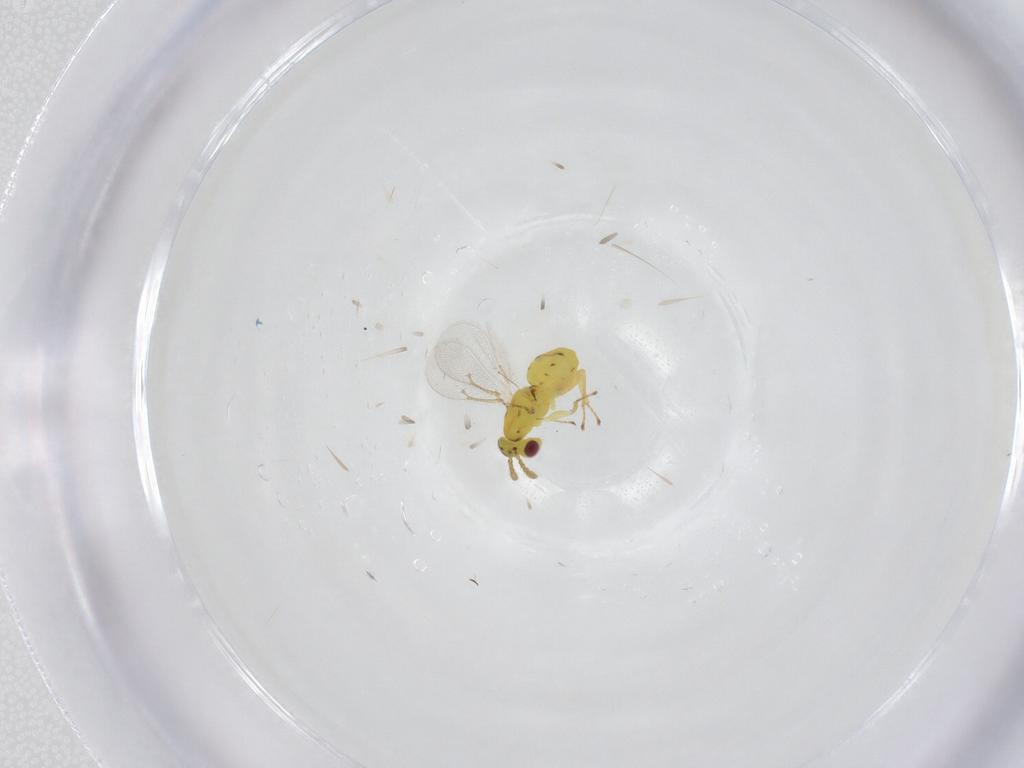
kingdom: Animalia
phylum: Arthropoda
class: Insecta
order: Hymenoptera
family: Eulophidae
